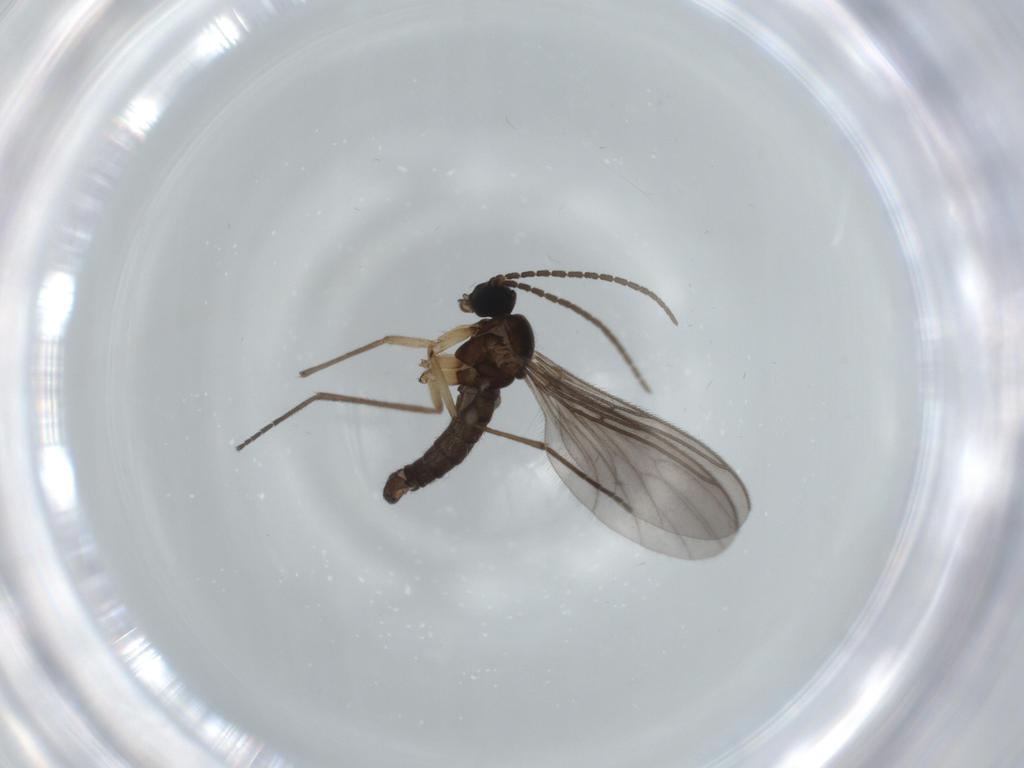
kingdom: Animalia
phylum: Arthropoda
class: Insecta
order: Diptera
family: Sciaridae
